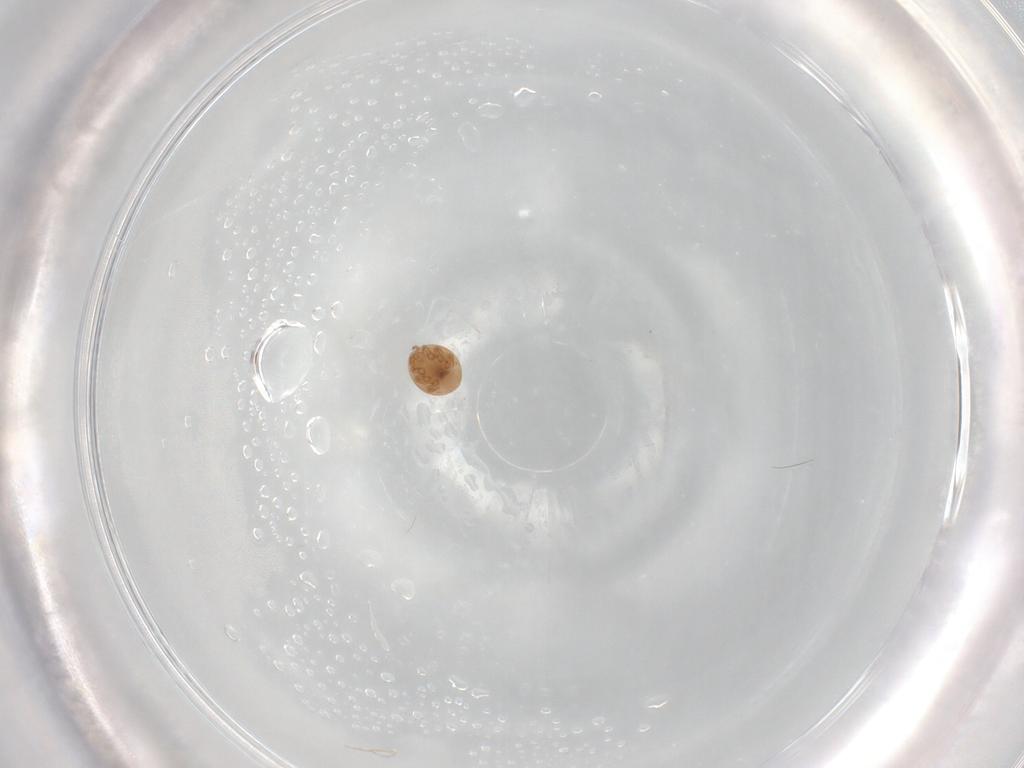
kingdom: Animalia
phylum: Arthropoda
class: Arachnida
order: Mesostigmata
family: Trematuridae
